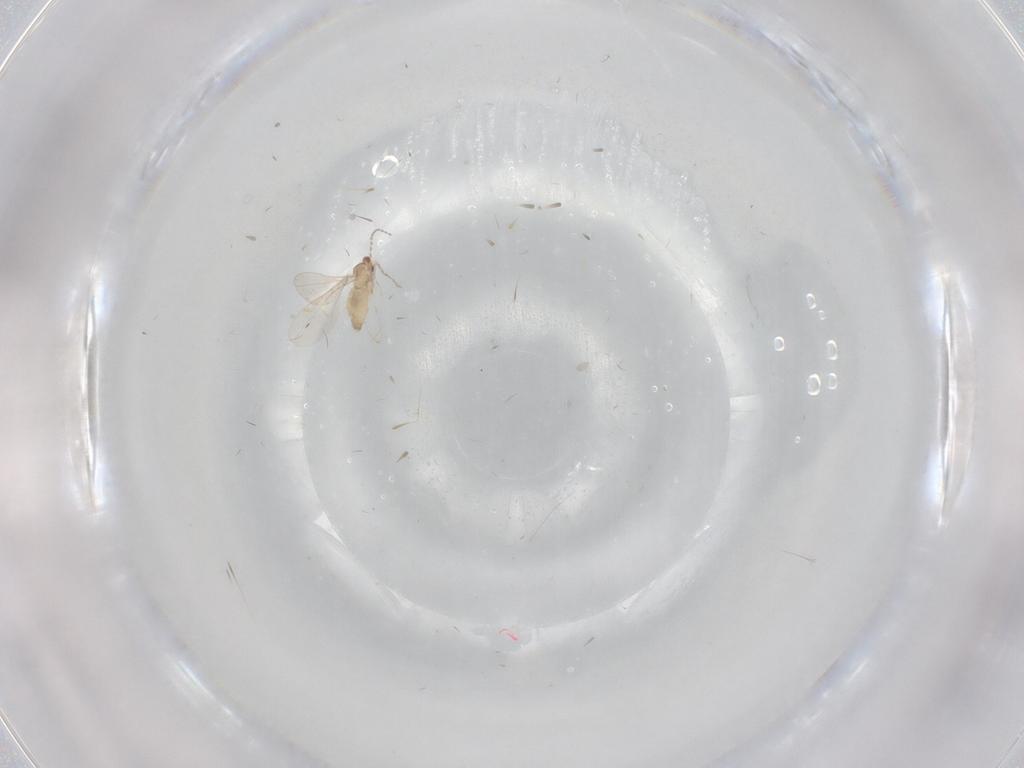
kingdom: Animalia
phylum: Arthropoda
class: Insecta
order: Diptera
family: Cecidomyiidae
